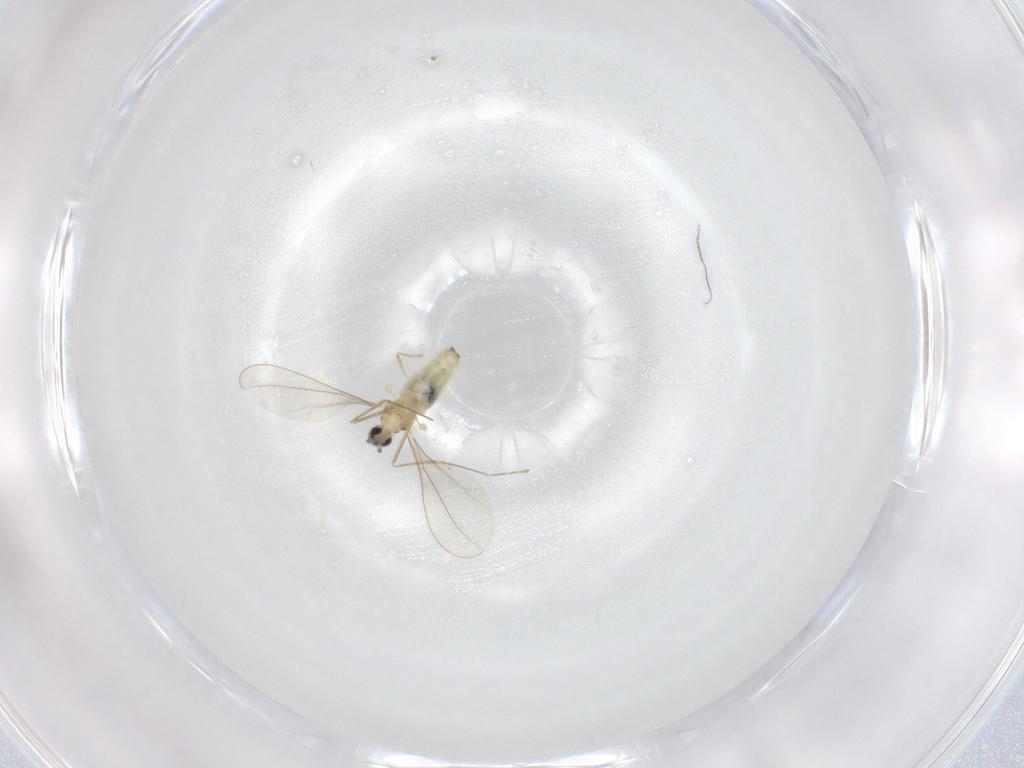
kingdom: Animalia
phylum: Arthropoda
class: Insecta
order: Diptera
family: Cecidomyiidae
